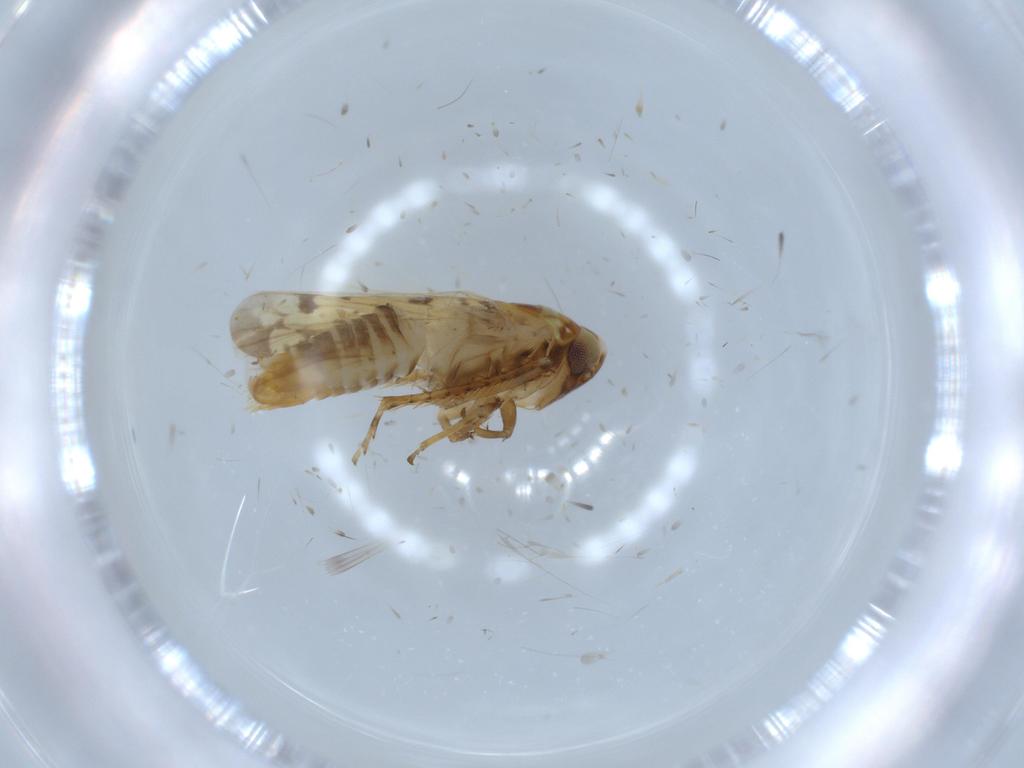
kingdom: Animalia
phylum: Arthropoda
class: Insecta
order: Hemiptera
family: Cicadellidae
